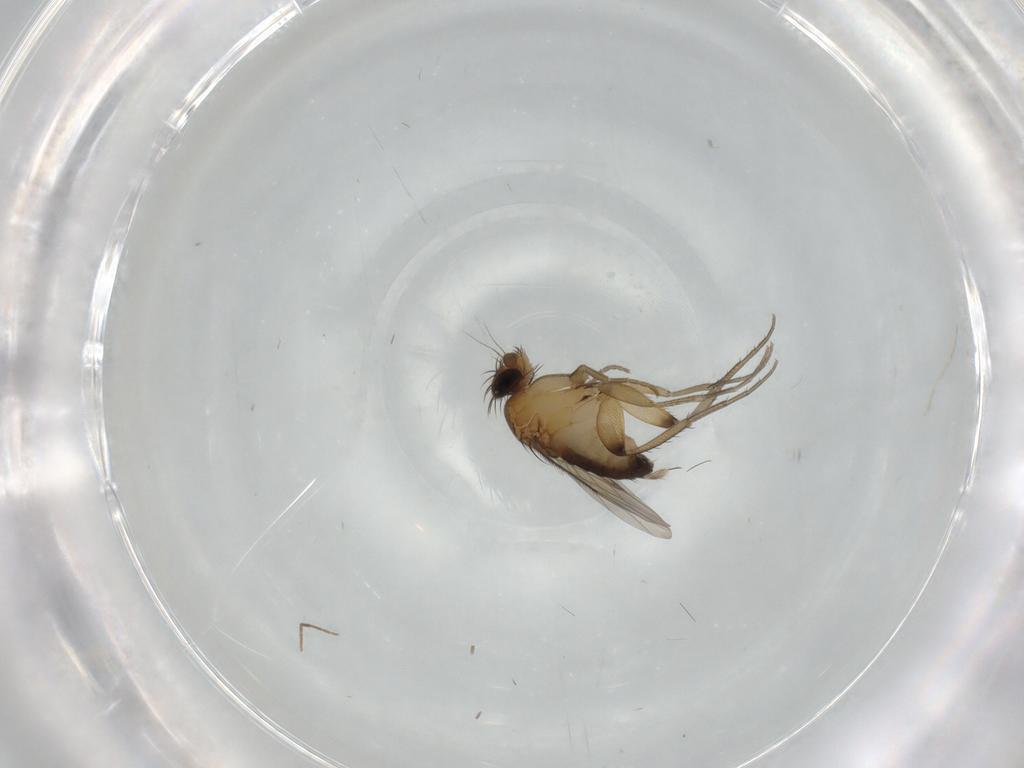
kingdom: Animalia
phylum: Arthropoda
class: Insecta
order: Diptera
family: Phoridae
